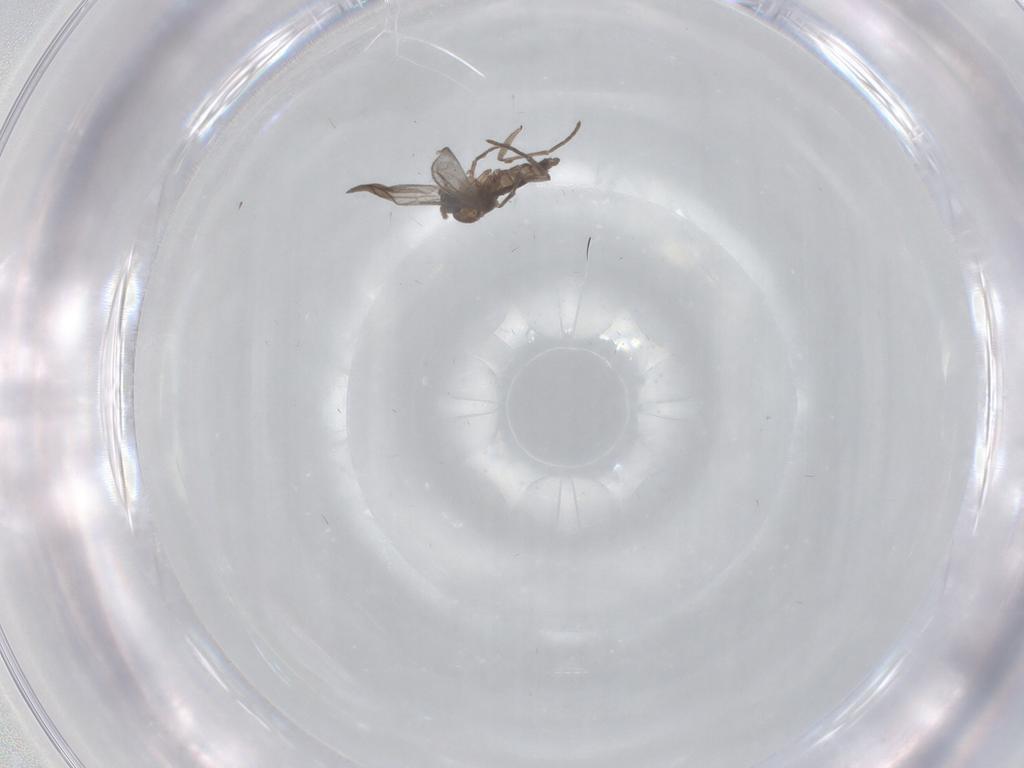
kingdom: Animalia
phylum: Arthropoda
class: Insecta
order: Diptera
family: Sciaridae
